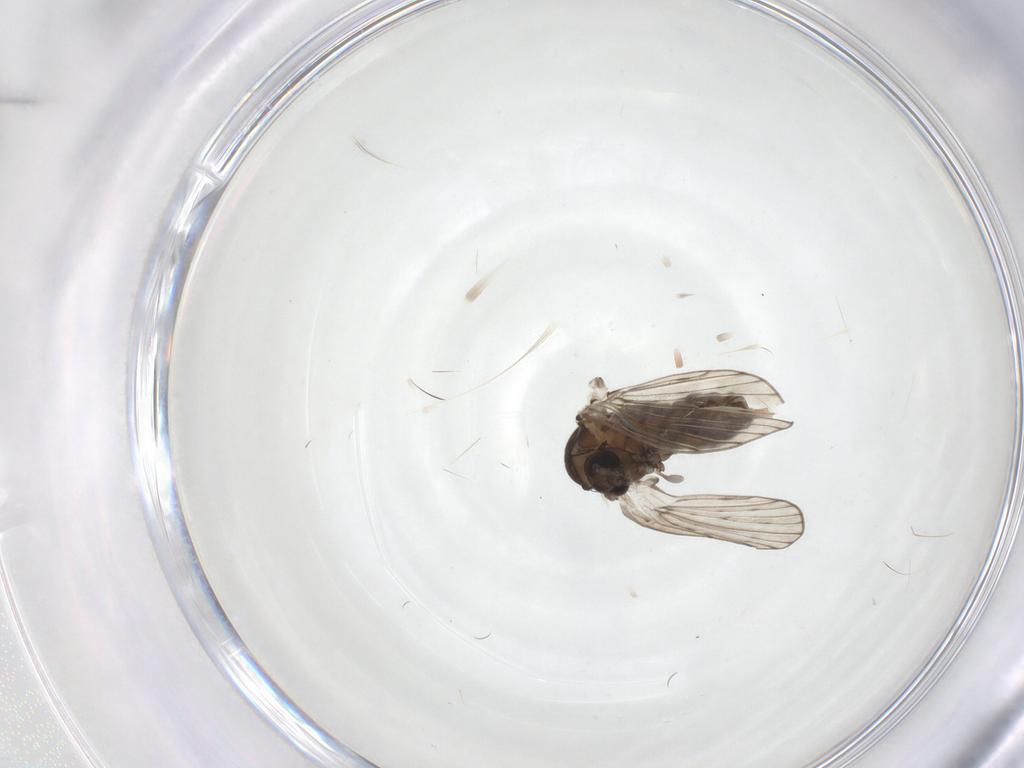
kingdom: Animalia
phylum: Arthropoda
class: Insecta
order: Diptera
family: Psychodidae
